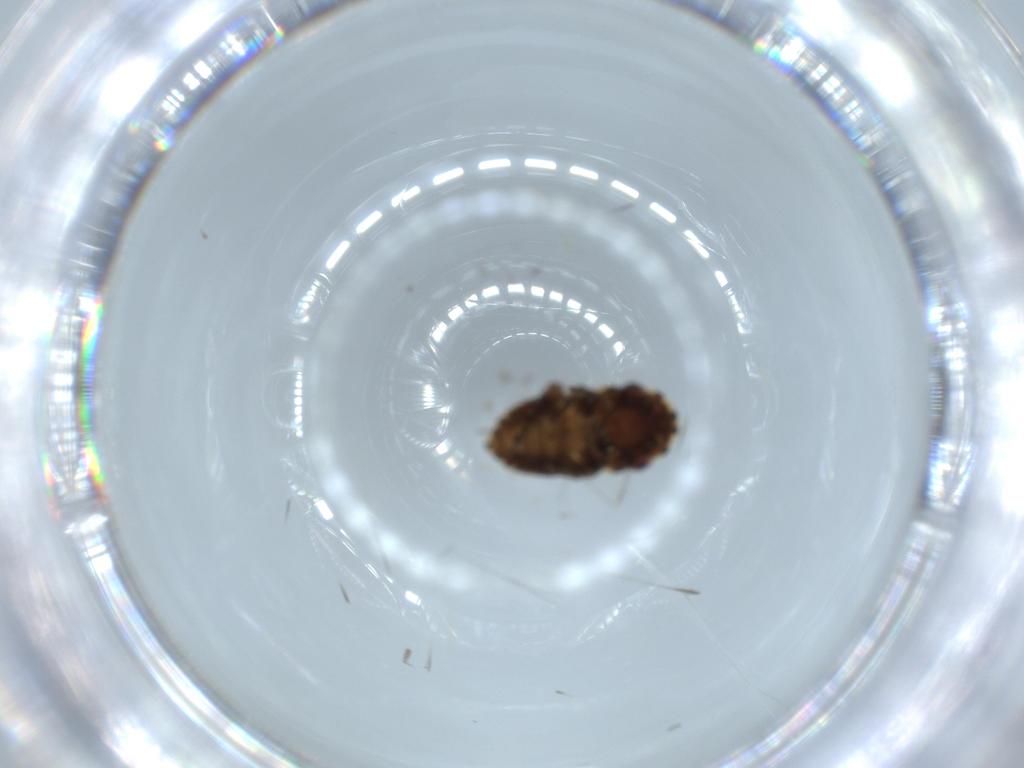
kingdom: Animalia
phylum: Arthropoda
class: Insecta
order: Hemiptera
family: Cicadellidae
